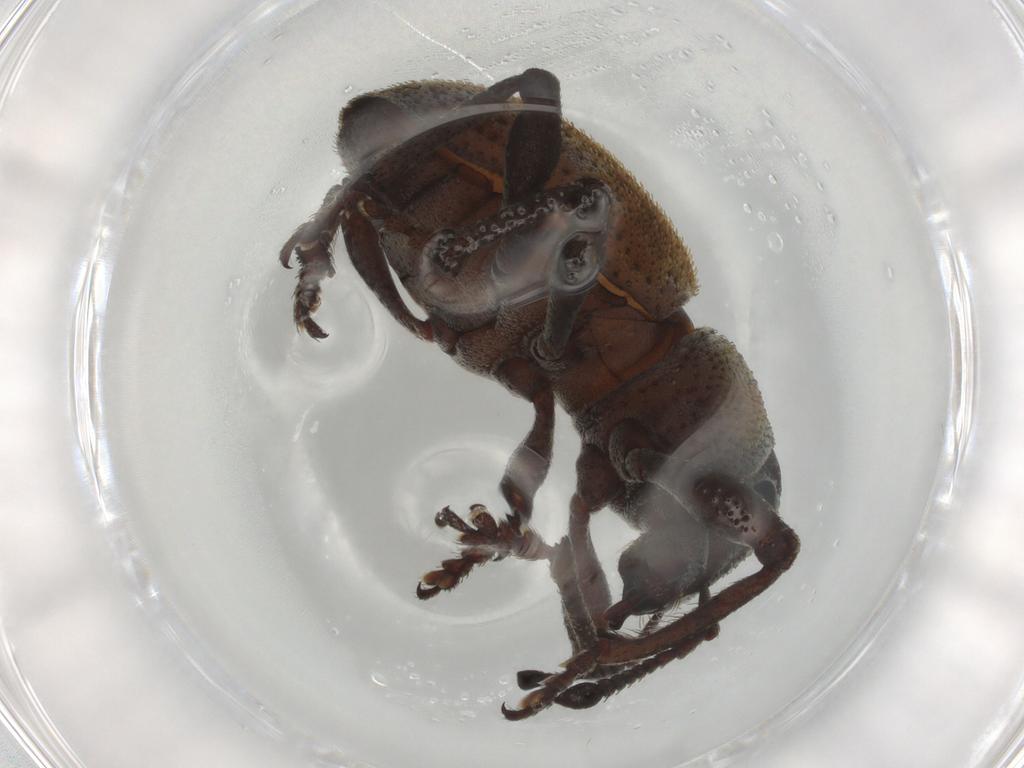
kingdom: Animalia
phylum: Arthropoda
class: Insecta
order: Coleoptera
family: Curculionidae
